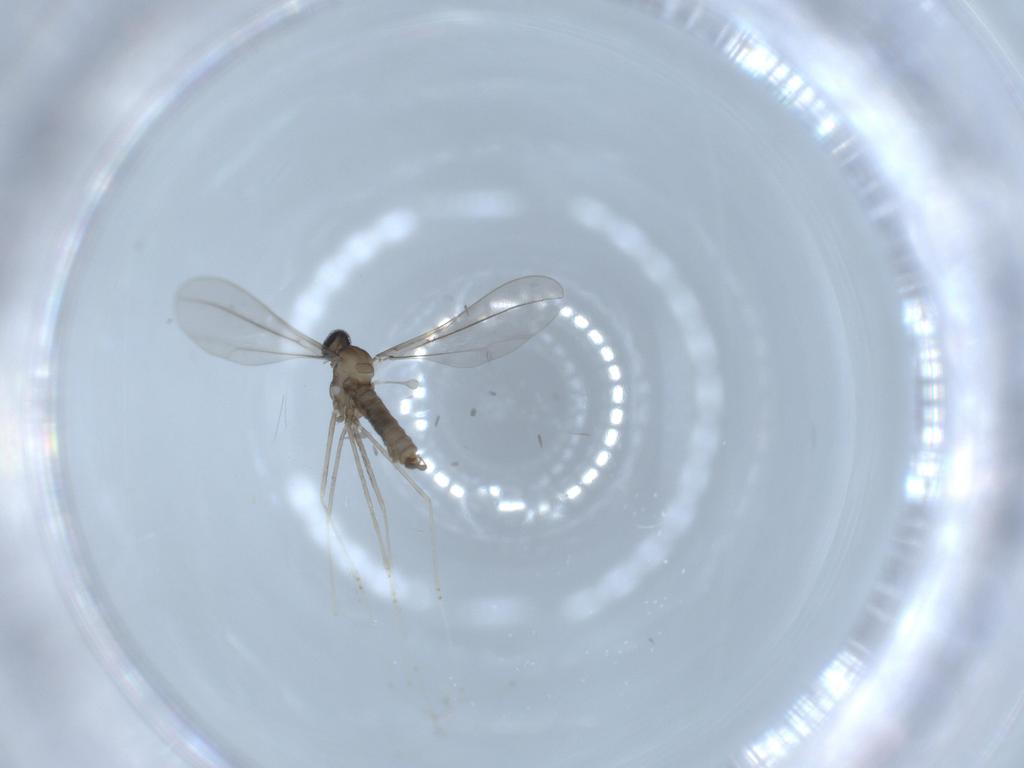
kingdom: Animalia
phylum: Arthropoda
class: Insecta
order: Diptera
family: Cecidomyiidae
